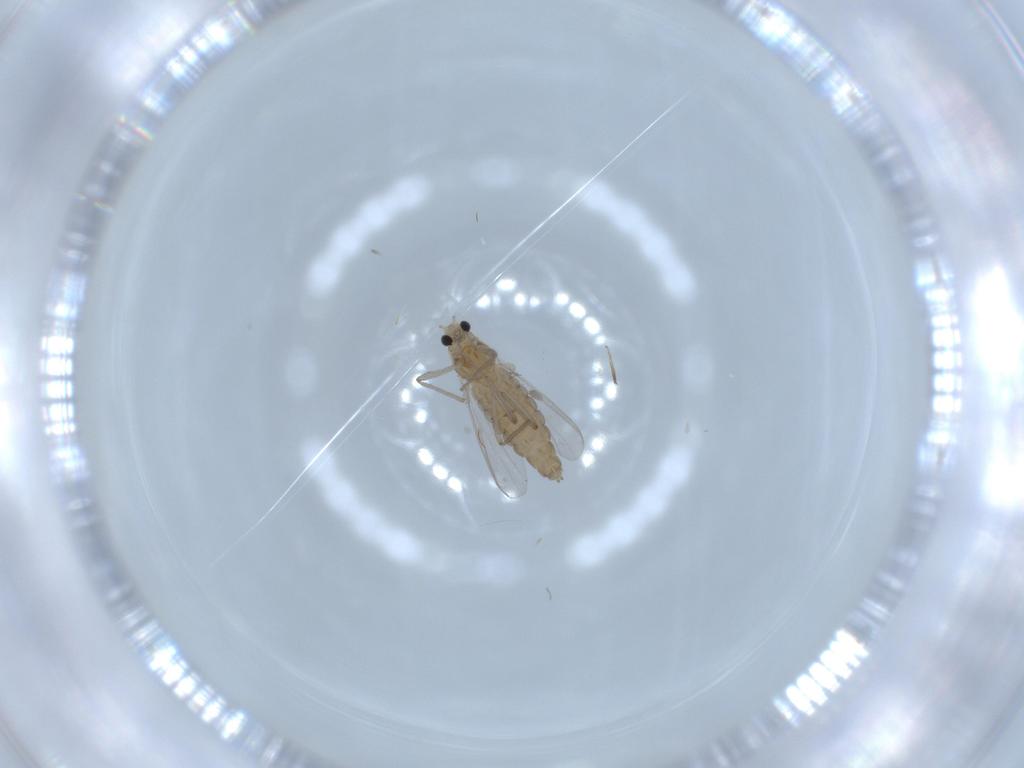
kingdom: Animalia
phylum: Arthropoda
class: Insecta
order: Diptera
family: Chironomidae
